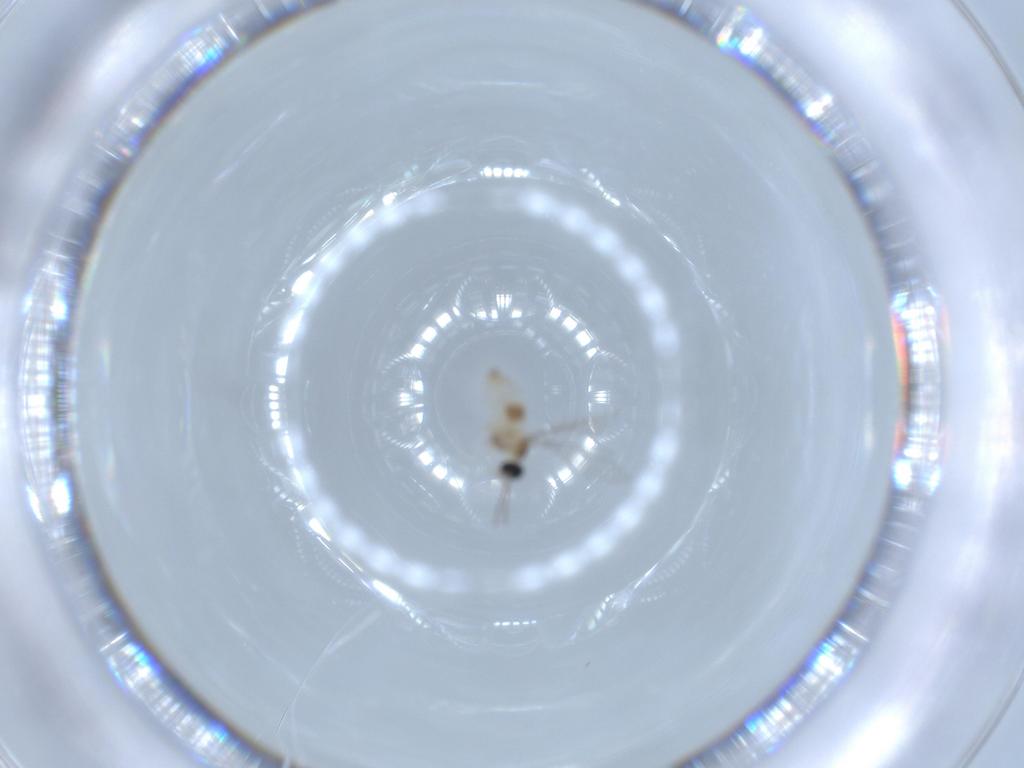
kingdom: Animalia
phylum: Arthropoda
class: Insecta
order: Diptera
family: Cecidomyiidae
